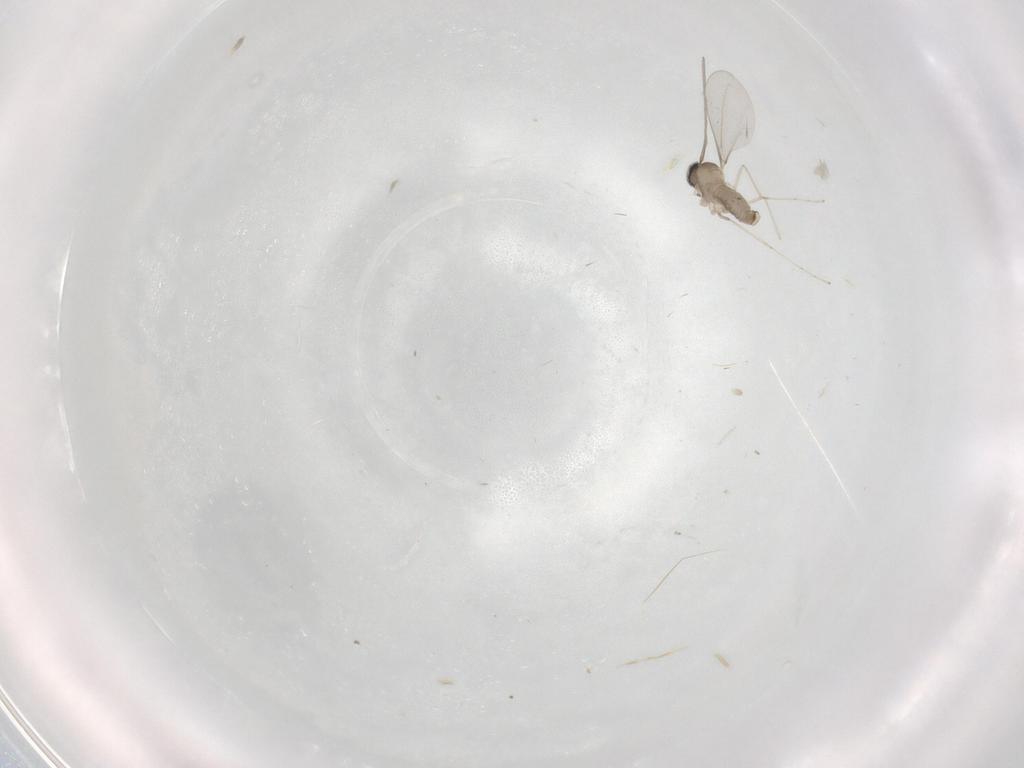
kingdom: Animalia
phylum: Arthropoda
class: Insecta
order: Diptera
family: Cecidomyiidae
